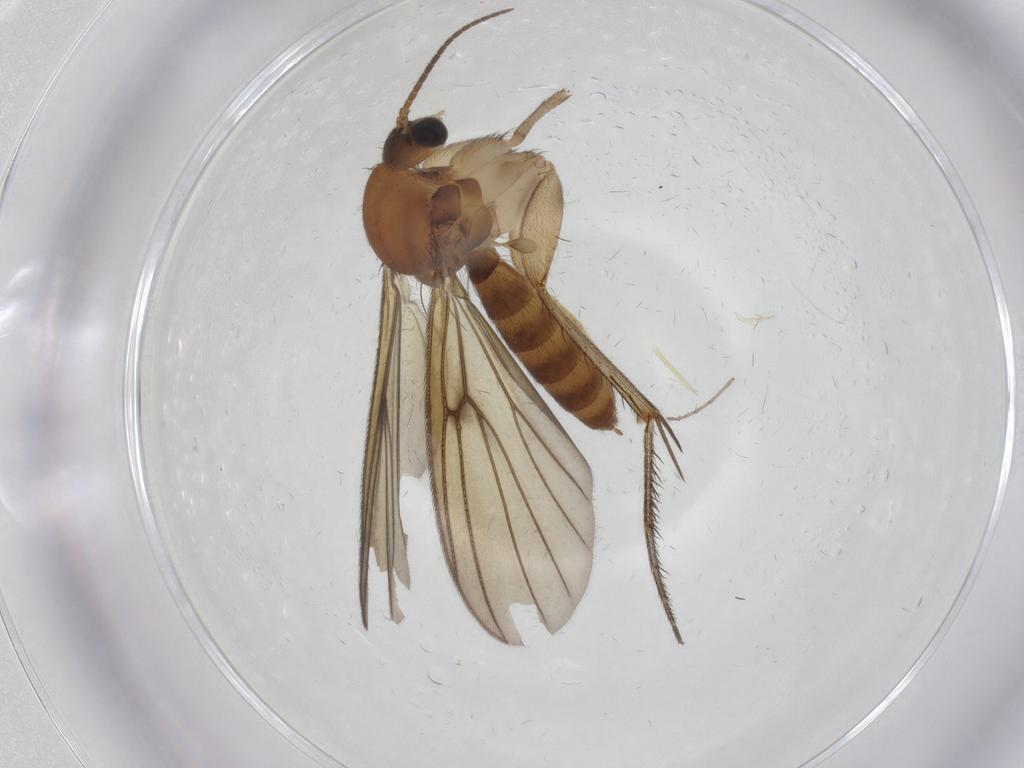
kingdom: Animalia
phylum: Arthropoda
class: Insecta
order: Diptera
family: Mycetophilidae
